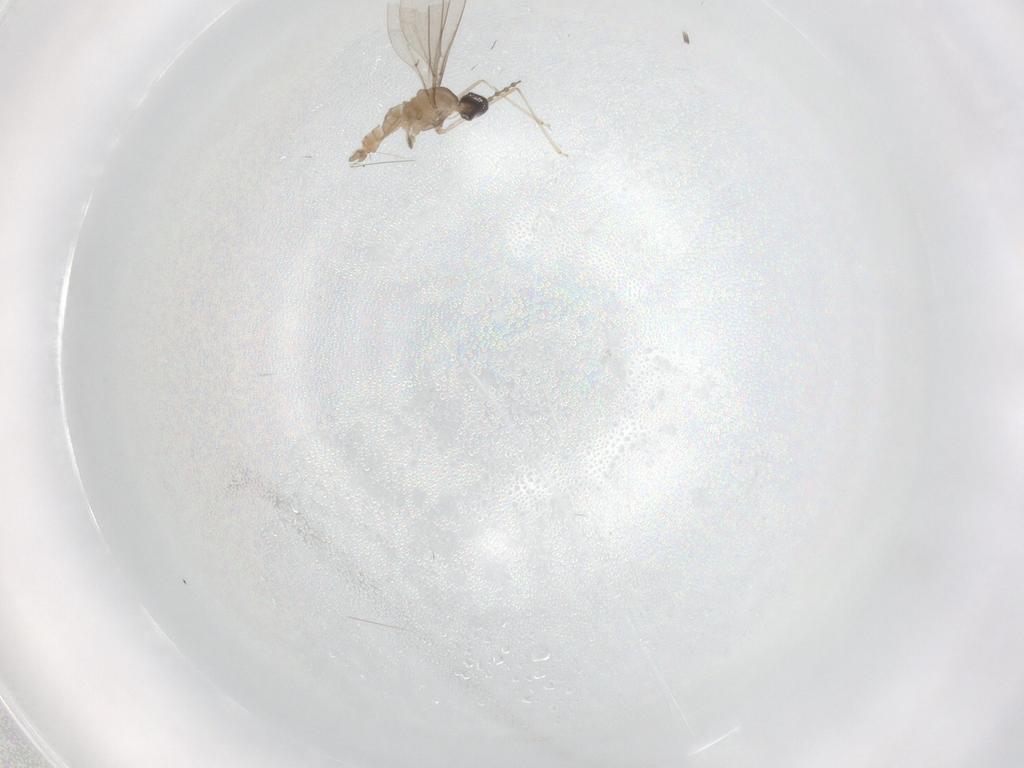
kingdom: Animalia
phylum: Arthropoda
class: Insecta
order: Diptera
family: Chironomidae
